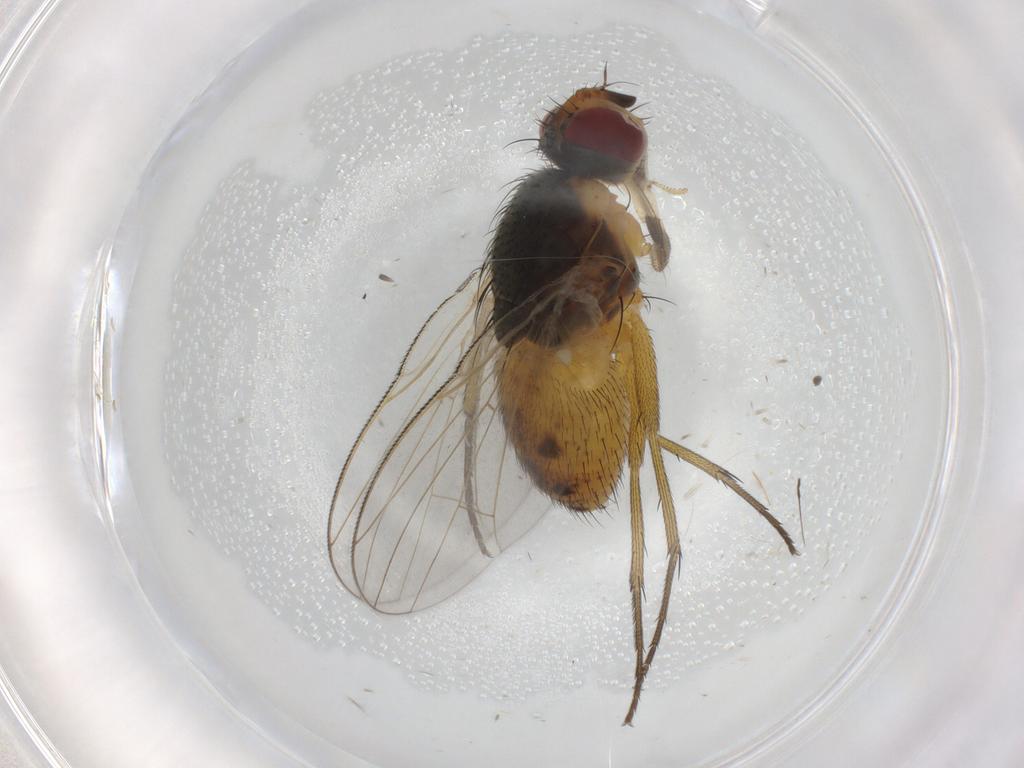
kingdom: Animalia
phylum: Arthropoda
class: Insecta
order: Diptera
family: Muscidae
